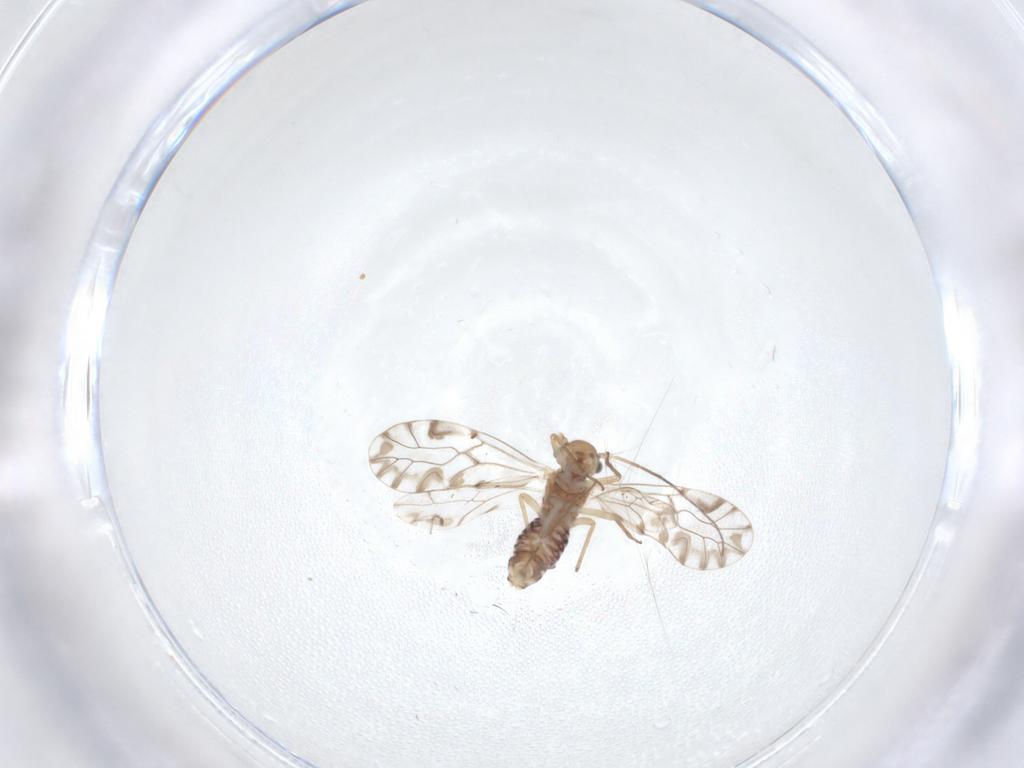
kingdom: Animalia
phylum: Arthropoda
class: Insecta
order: Psocodea
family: Lachesillidae
